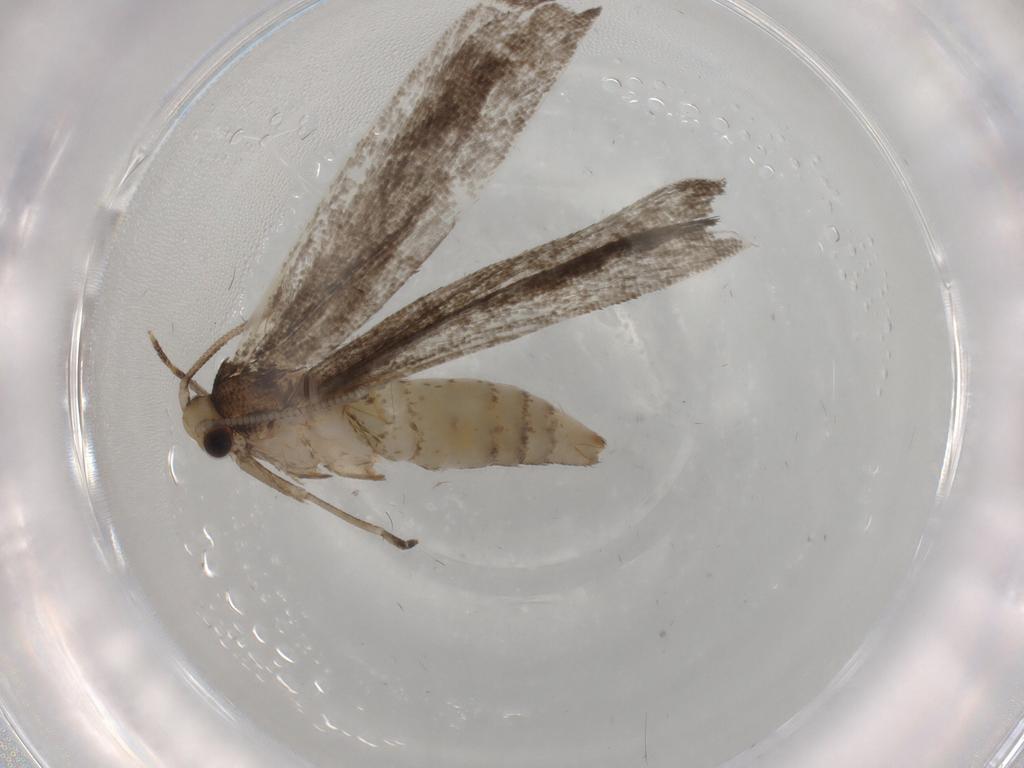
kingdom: Animalia
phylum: Arthropoda
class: Insecta
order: Lepidoptera
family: Tineidae
